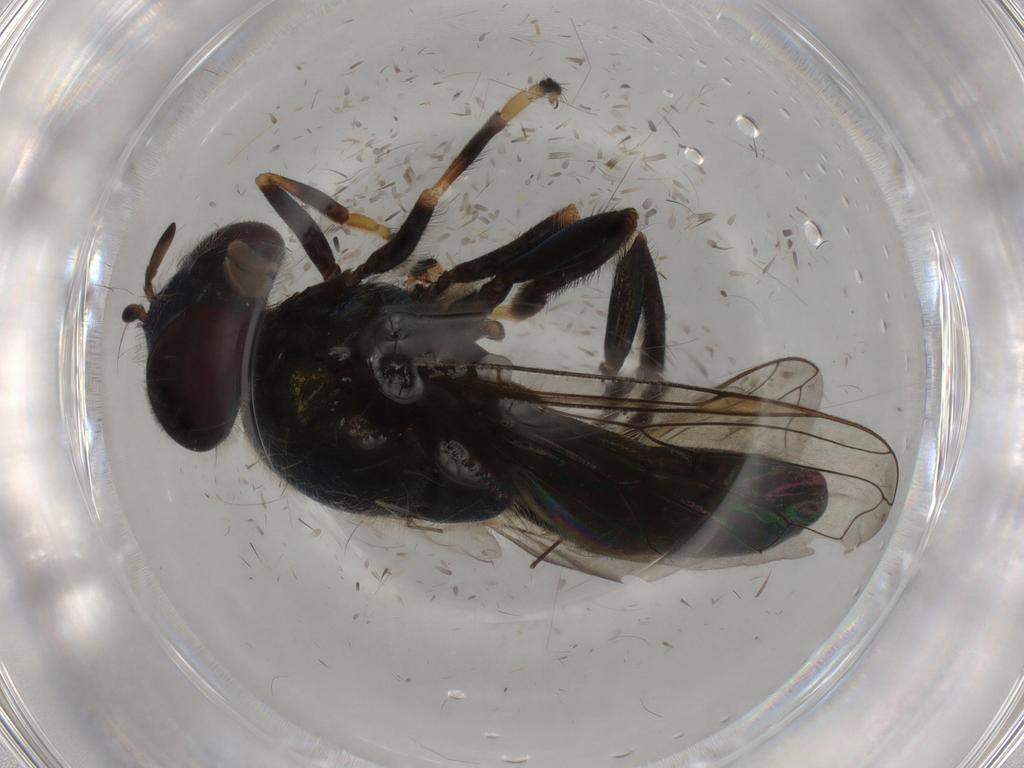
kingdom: Animalia
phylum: Arthropoda
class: Insecta
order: Diptera
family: Syrphidae
